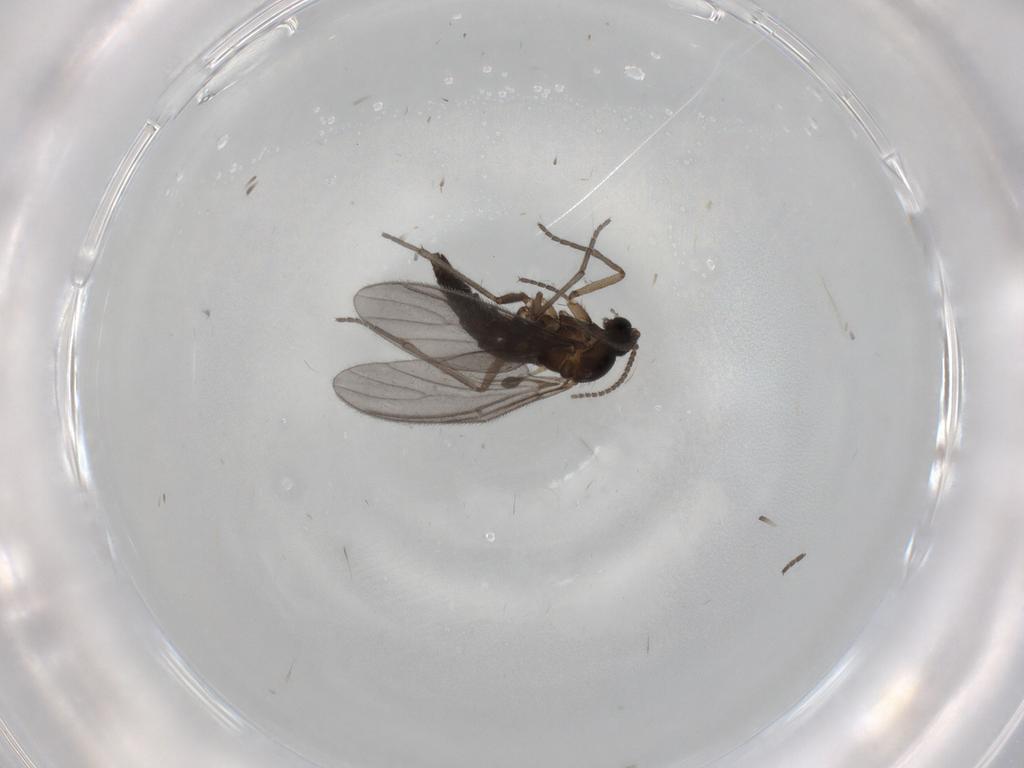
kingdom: Animalia
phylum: Arthropoda
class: Insecta
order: Diptera
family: Sciaridae
